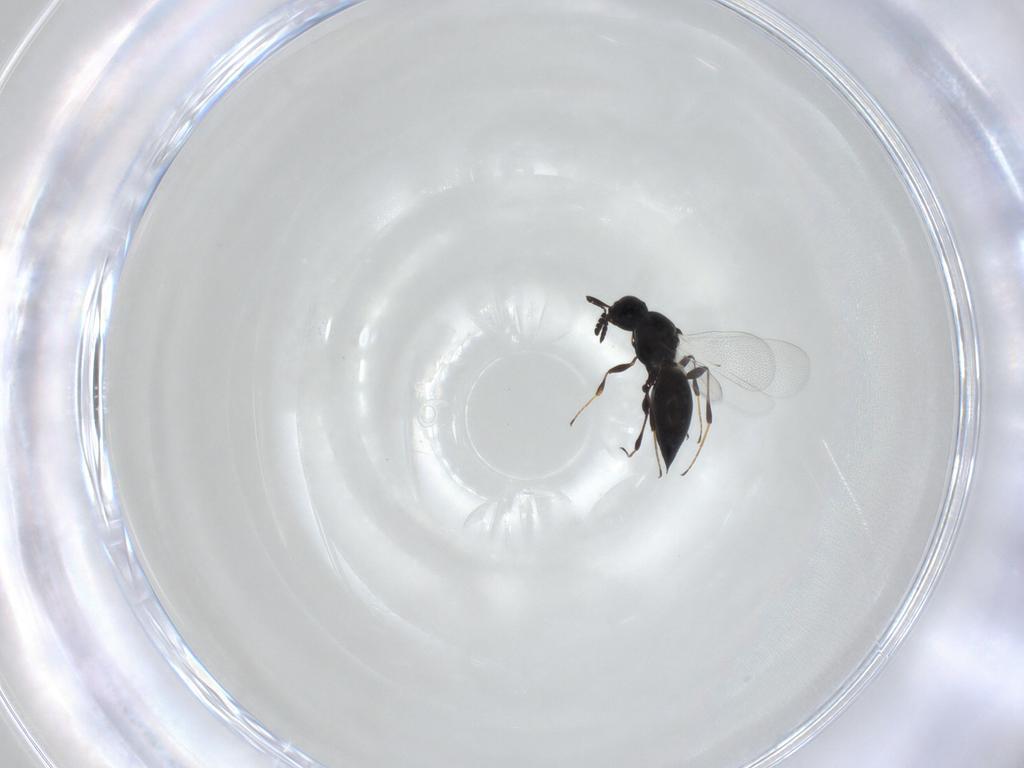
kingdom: Animalia
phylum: Arthropoda
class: Insecta
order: Hymenoptera
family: Platygastridae
